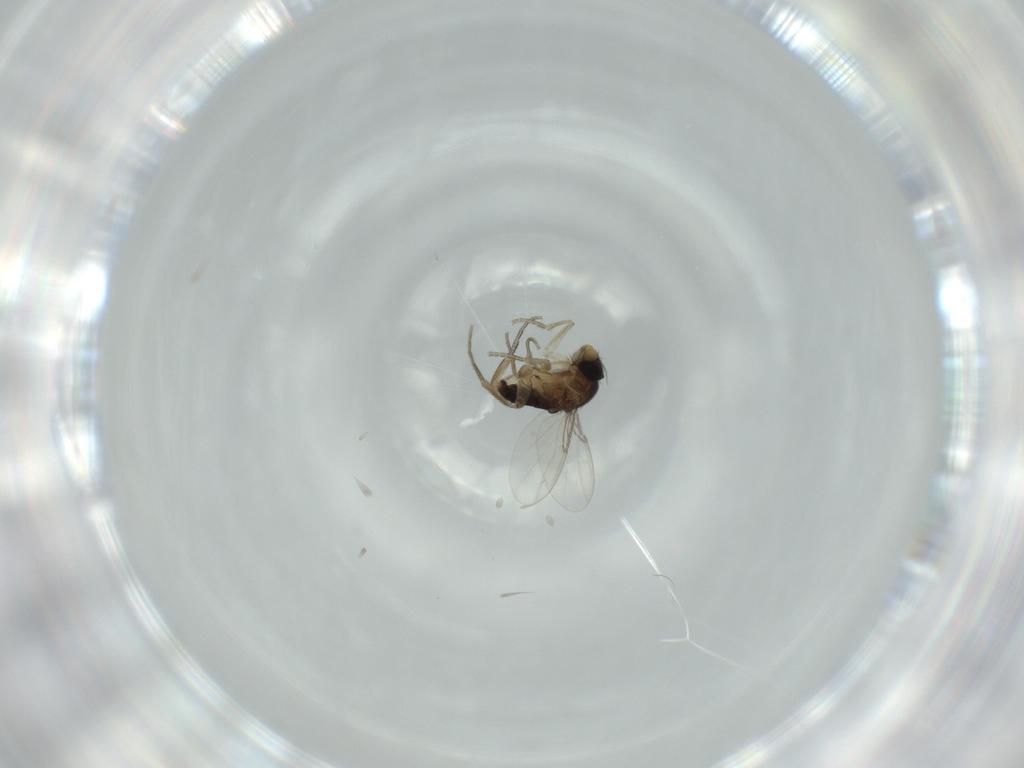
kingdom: Animalia
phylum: Arthropoda
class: Insecta
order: Diptera
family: Phoridae
